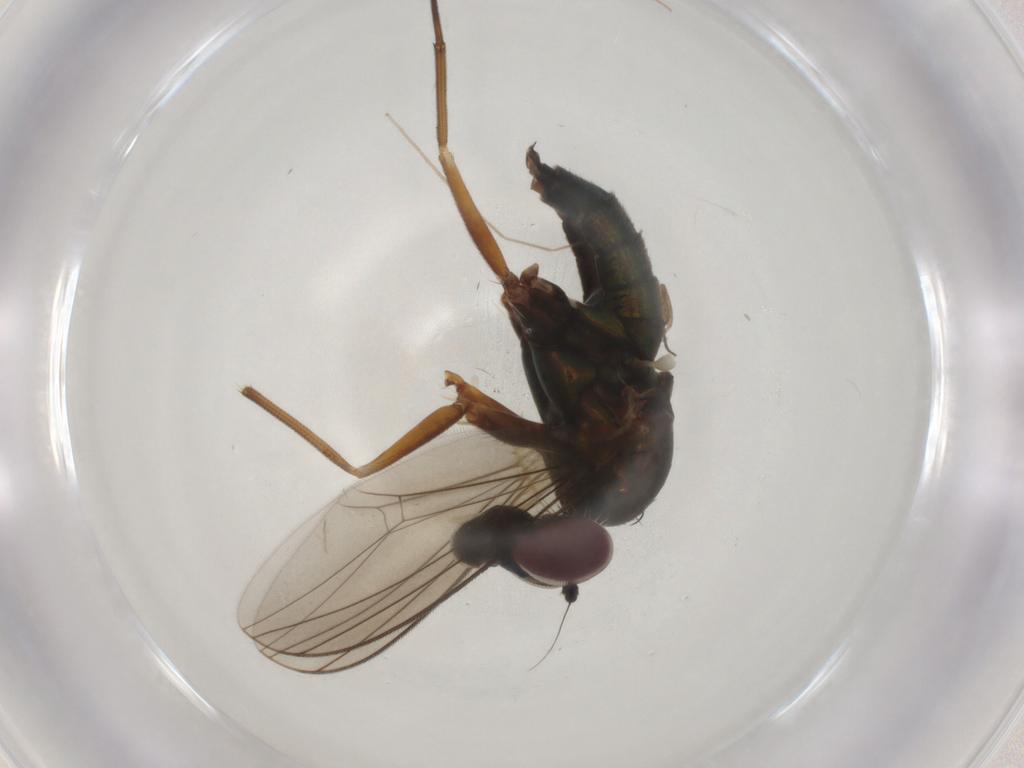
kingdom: Animalia
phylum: Arthropoda
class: Insecta
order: Diptera
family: Dolichopodidae
